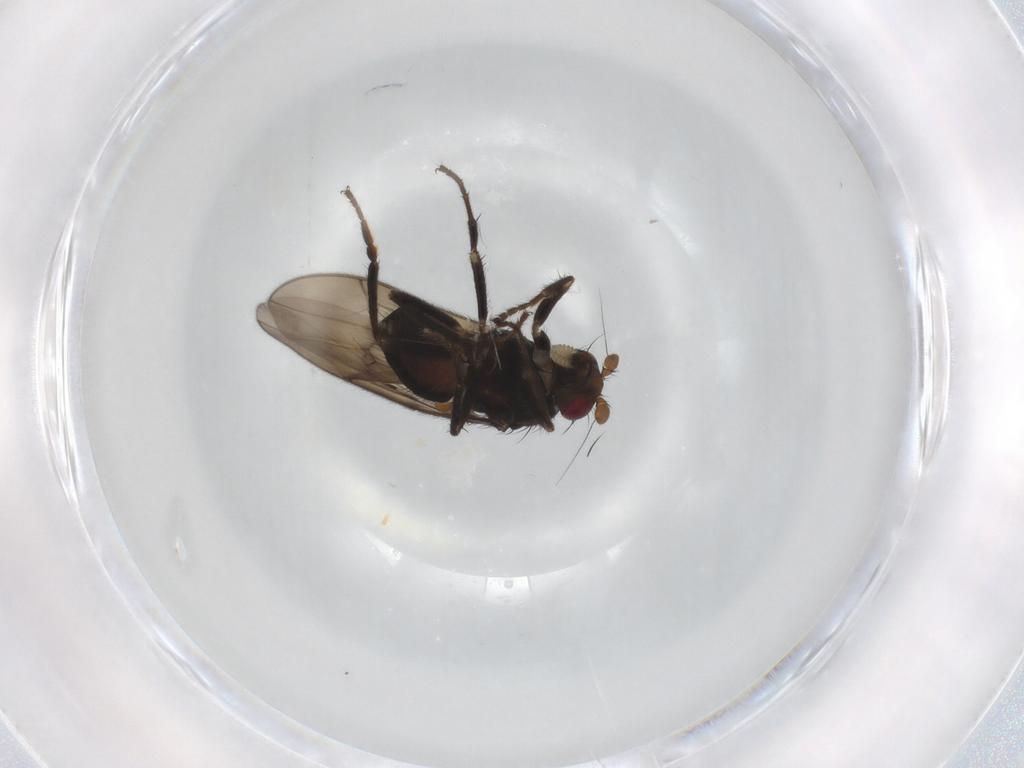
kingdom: Animalia
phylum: Arthropoda
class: Insecta
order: Diptera
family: Sphaeroceridae
